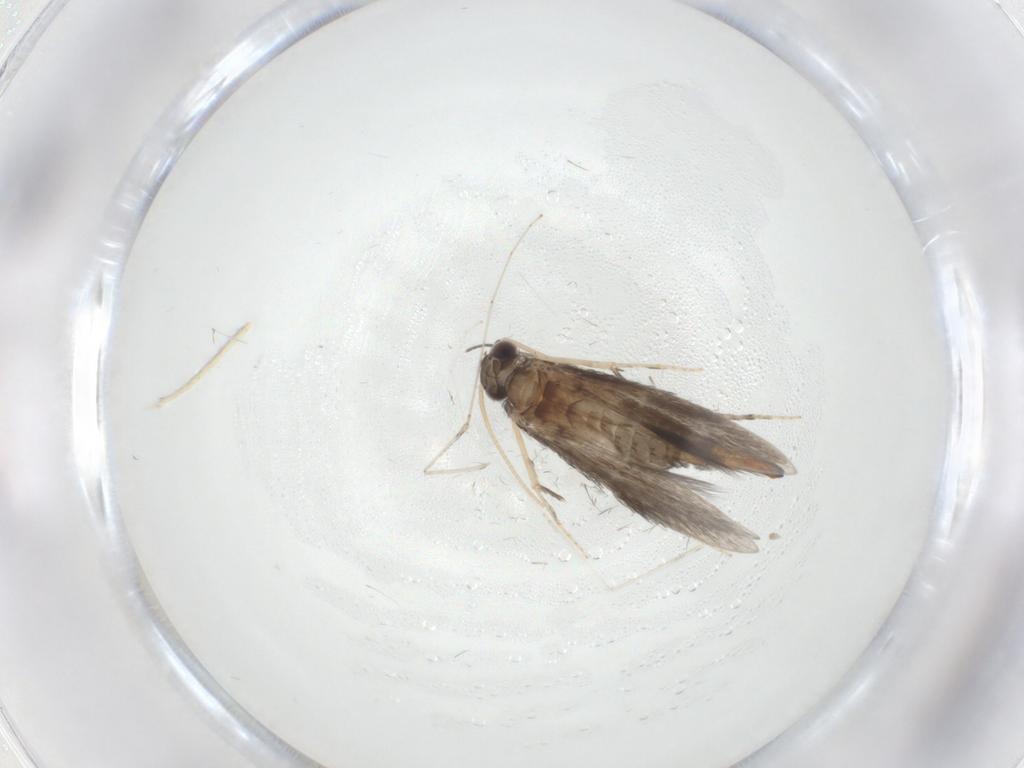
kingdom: Animalia
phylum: Arthropoda
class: Insecta
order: Trichoptera
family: Hydroptilidae
